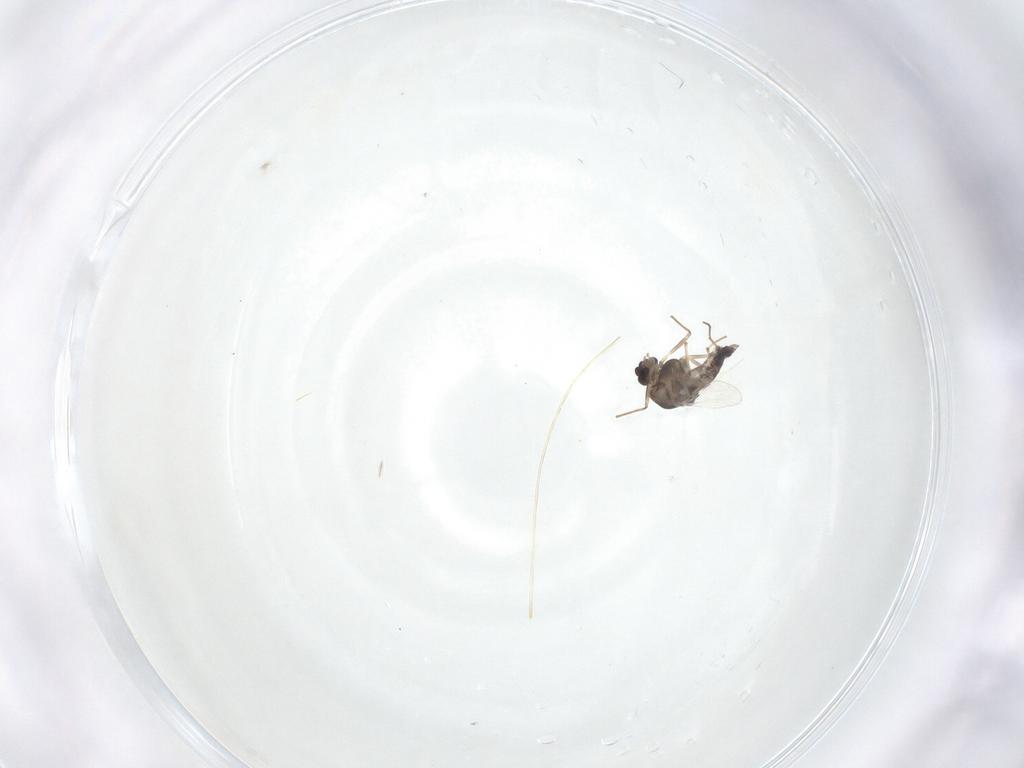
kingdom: Animalia
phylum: Arthropoda
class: Insecta
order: Diptera
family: Chironomidae
